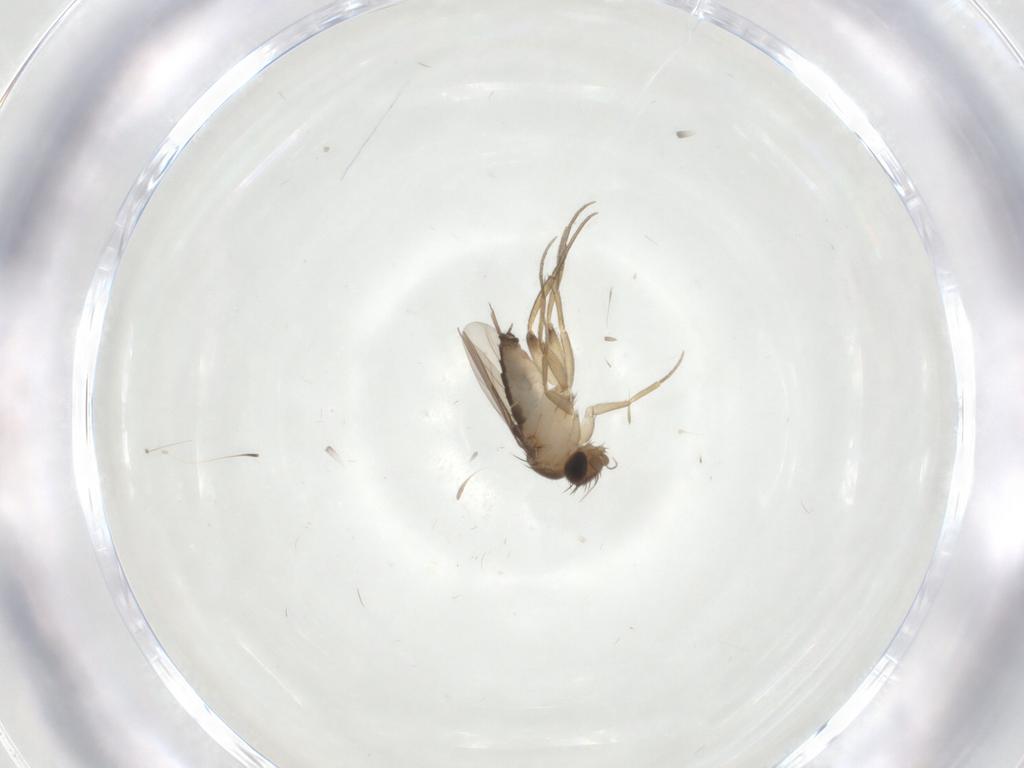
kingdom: Animalia
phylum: Arthropoda
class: Insecta
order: Diptera
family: Phoridae
